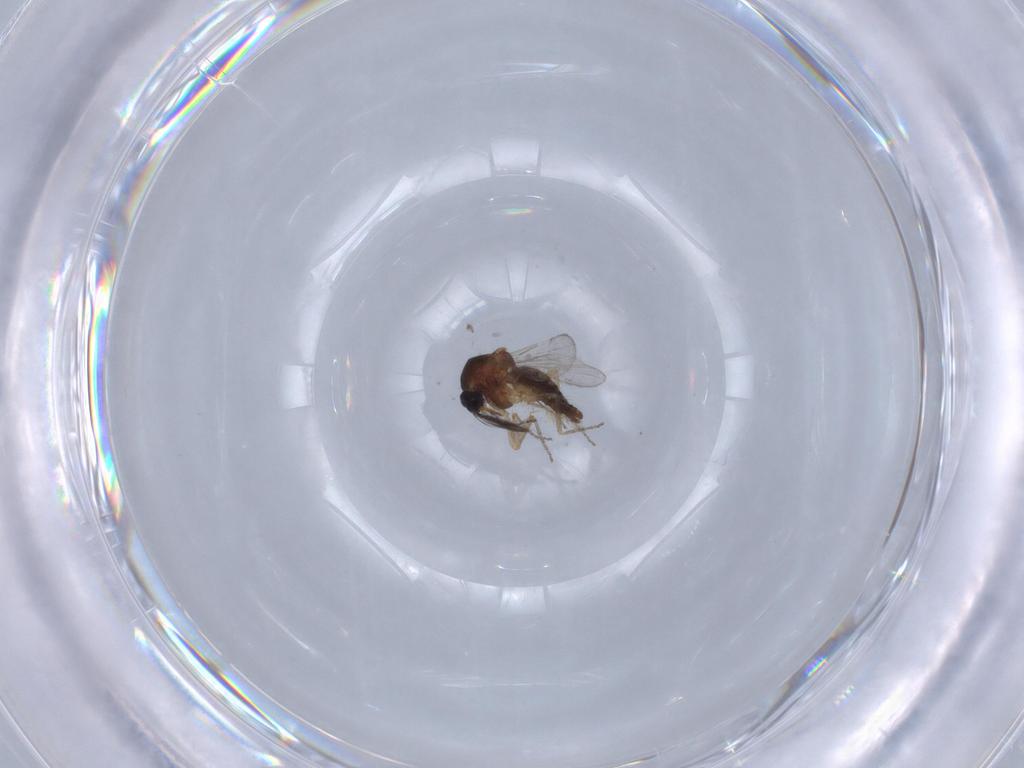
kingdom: Animalia
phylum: Arthropoda
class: Insecta
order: Diptera
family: Ceratopogonidae
